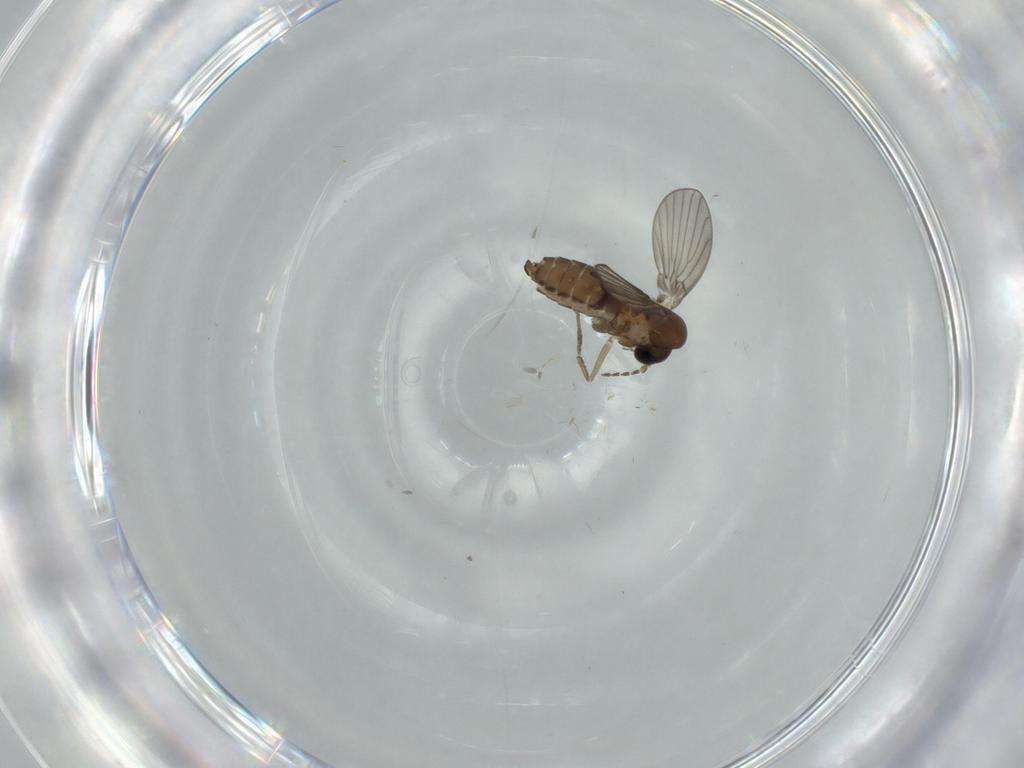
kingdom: Animalia
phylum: Arthropoda
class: Insecta
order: Diptera
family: Psychodidae
